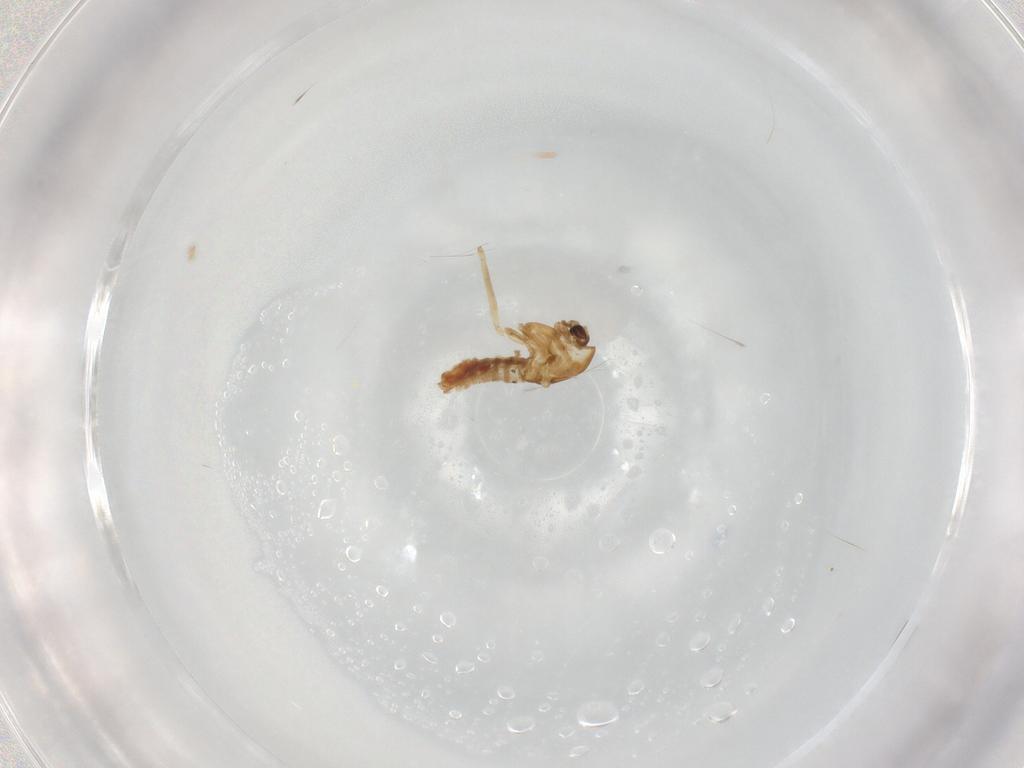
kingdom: Animalia
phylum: Arthropoda
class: Insecta
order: Diptera
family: Chironomidae
